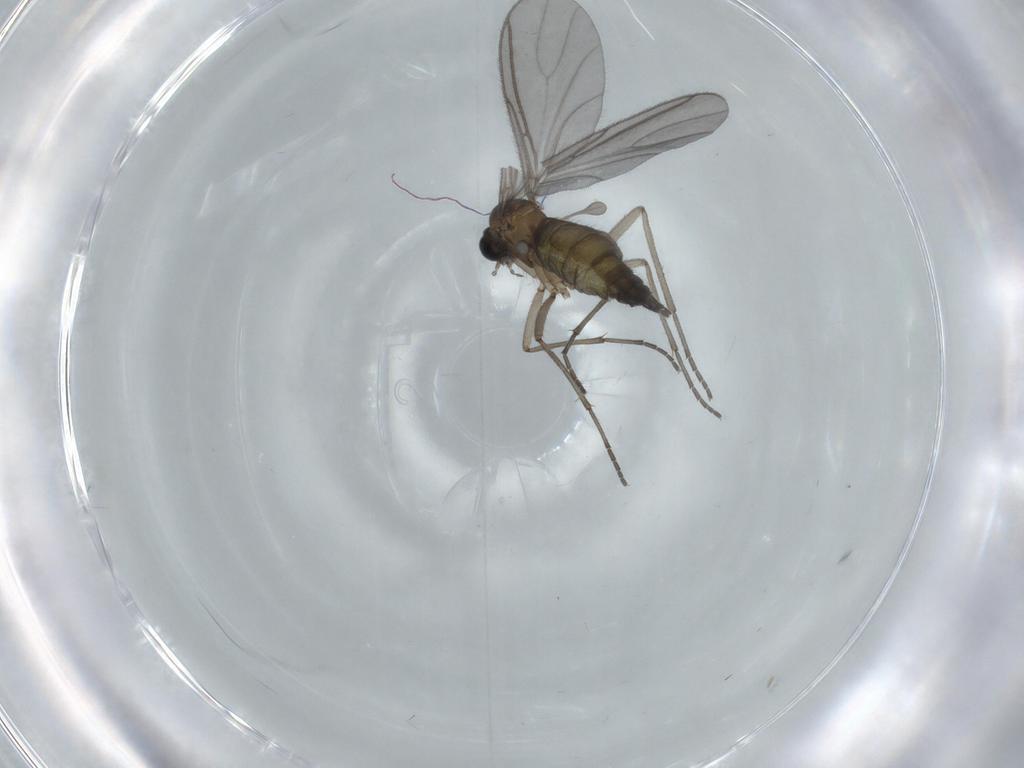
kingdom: Animalia
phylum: Arthropoda
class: Insecta
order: Diptera
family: Sciaridae
